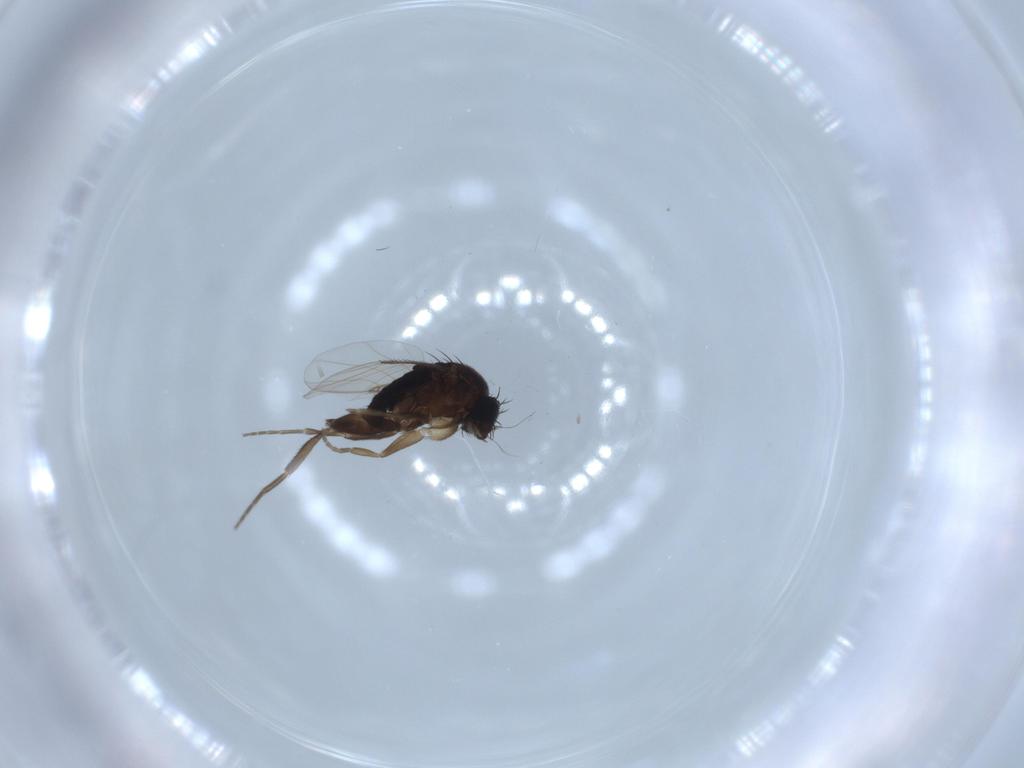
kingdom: Animalia
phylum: Arthropoda
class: Insecta
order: Diptera
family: Phoridae
